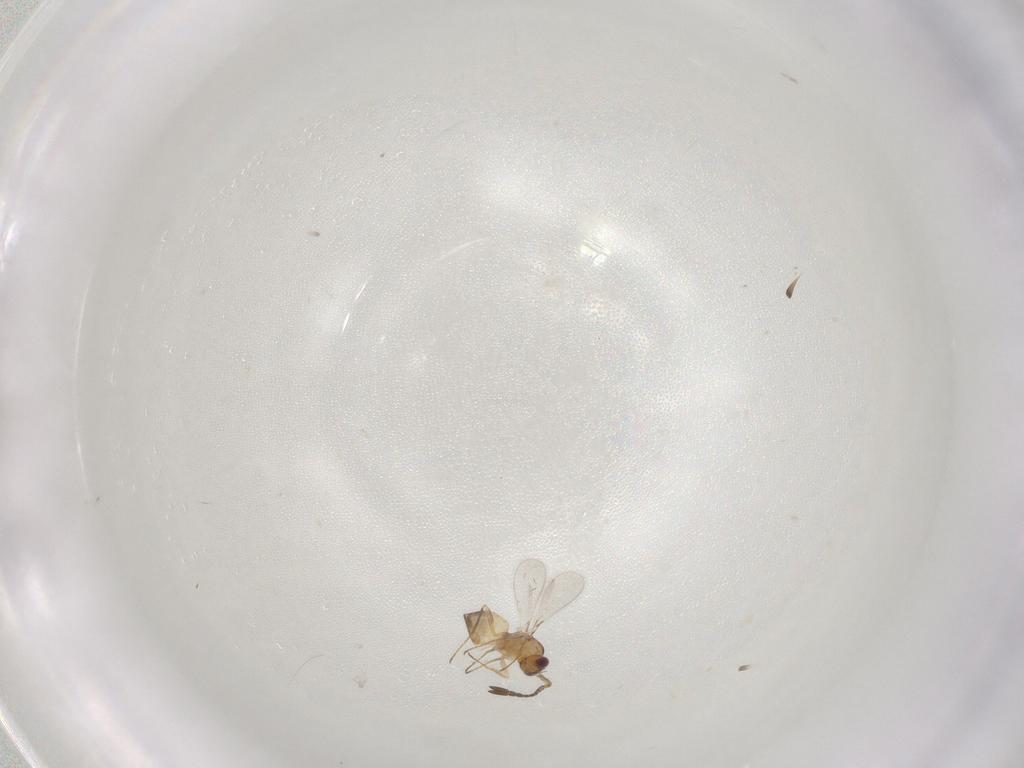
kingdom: Animalia
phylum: Arthropoda
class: Insecta
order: Hymenoptera
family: Mymaridae
